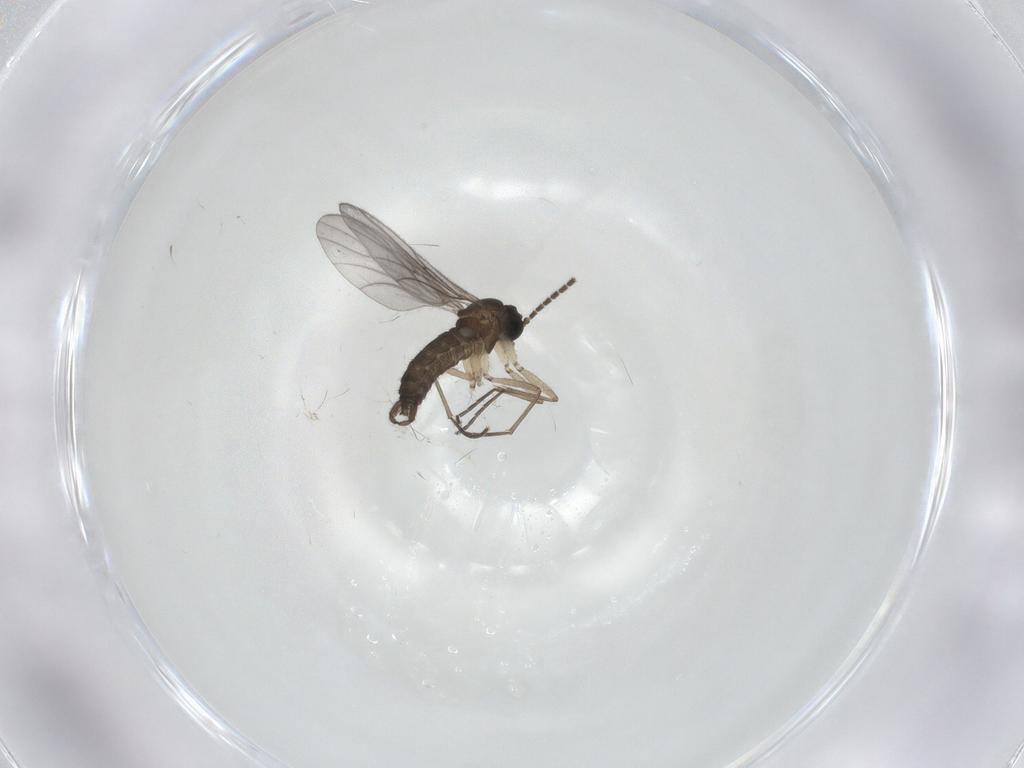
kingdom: Animalia
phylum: Arthropoda
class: Insecta
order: Diptera
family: Sciaridae
